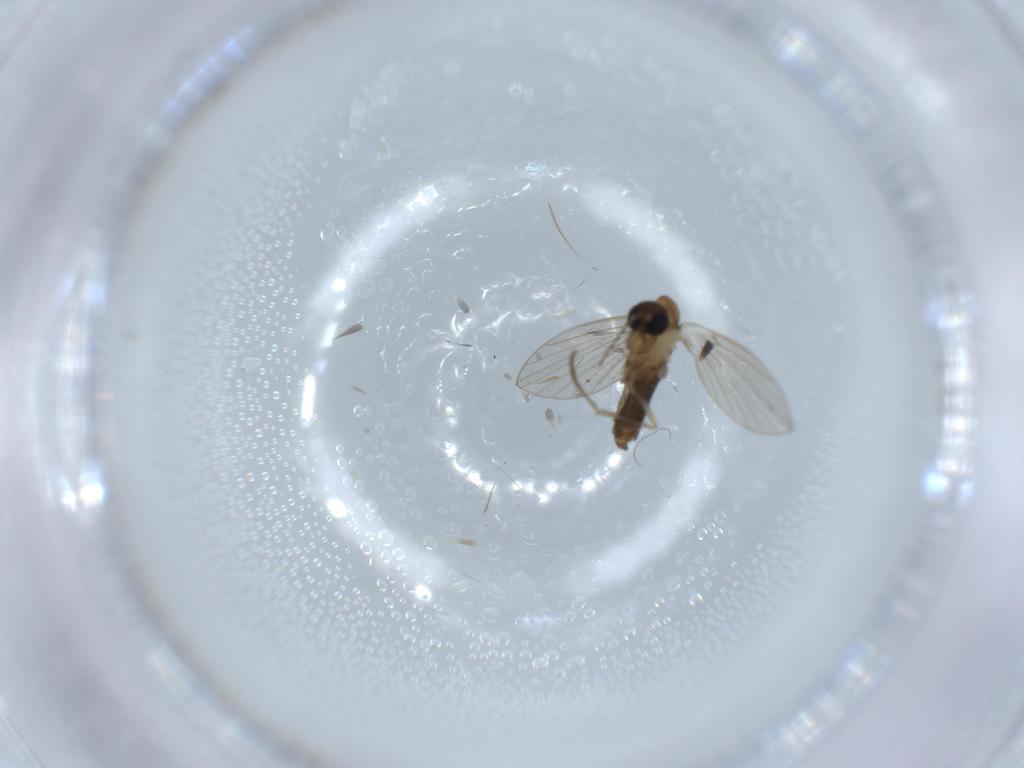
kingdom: Animalia
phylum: Arthropoda
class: Insecta
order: Diptera
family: Psychodidae
